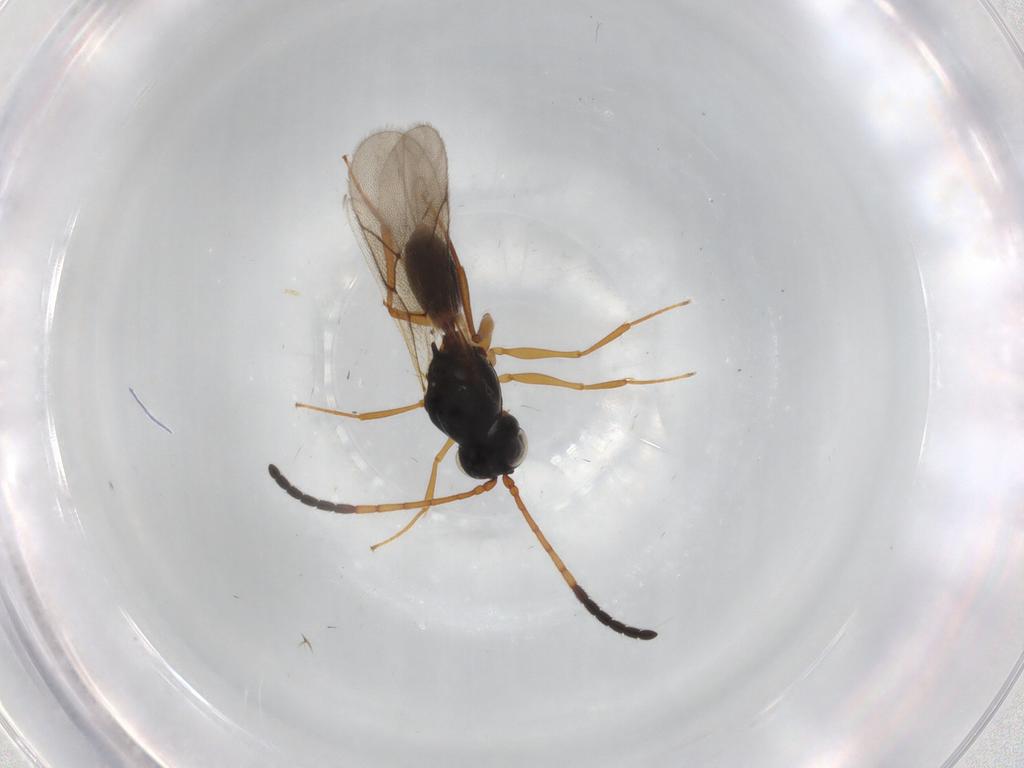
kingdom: Animalia
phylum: Arthropoda
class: Insecta
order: Hymenoptera
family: Figitidae
